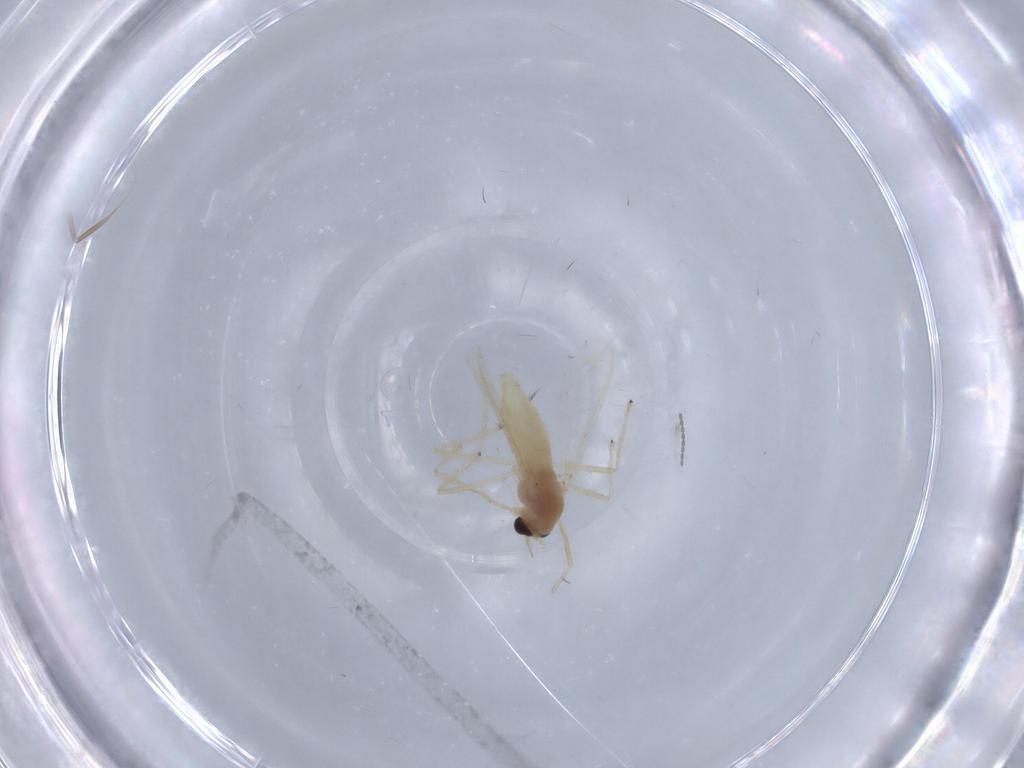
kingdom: Animalia
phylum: Arthropoda
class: Insecta
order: Diptera
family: Chironomidae
